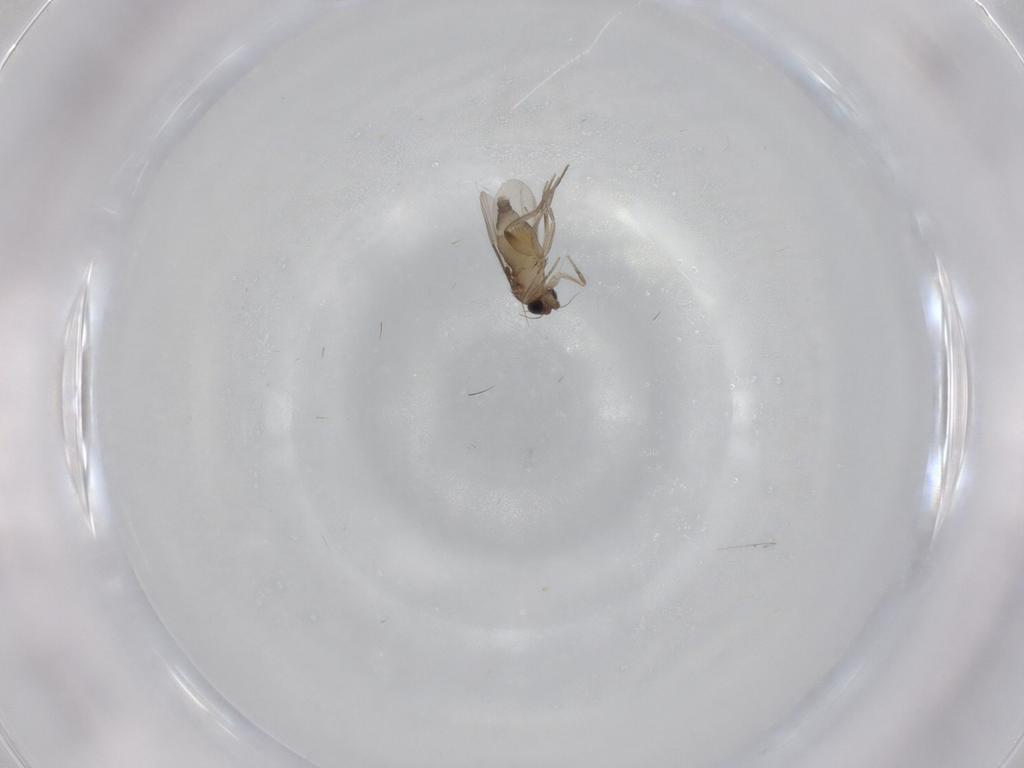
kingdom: Animalia
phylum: Arthropoda
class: Insecta
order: Diptera
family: Phoridae
